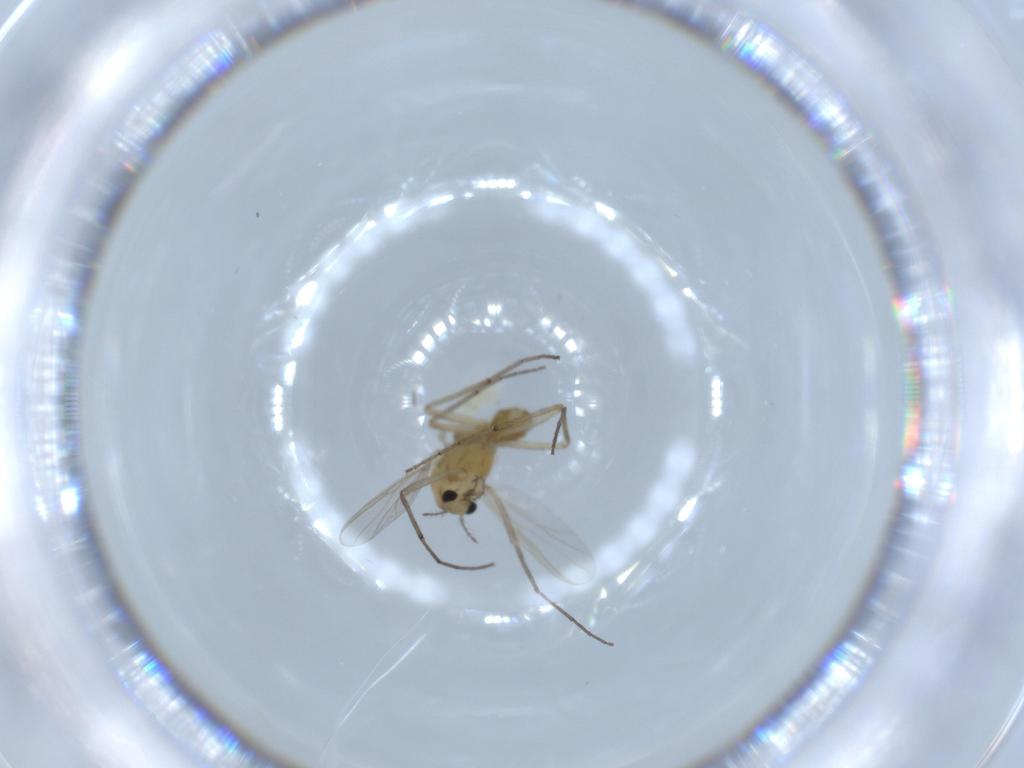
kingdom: Animalia
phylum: Arthropoda
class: Insecta
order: Diptera
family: Chironomidae
